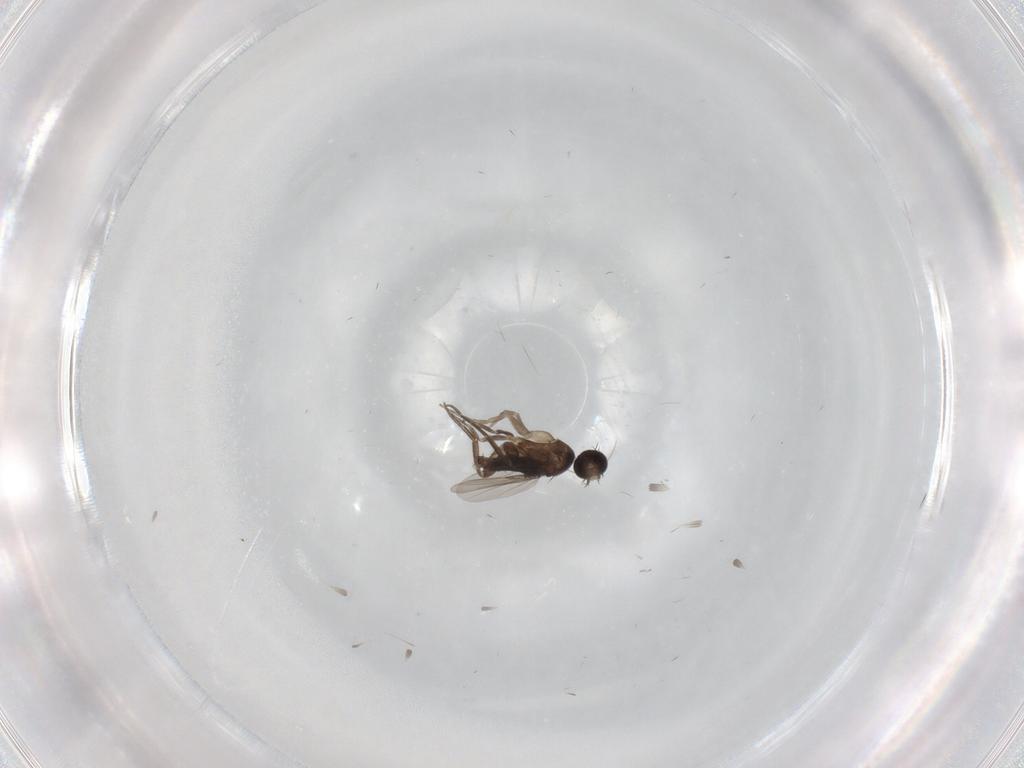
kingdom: Animalia
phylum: Arthropoda
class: Insecta
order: Diptera
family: Phoridae
